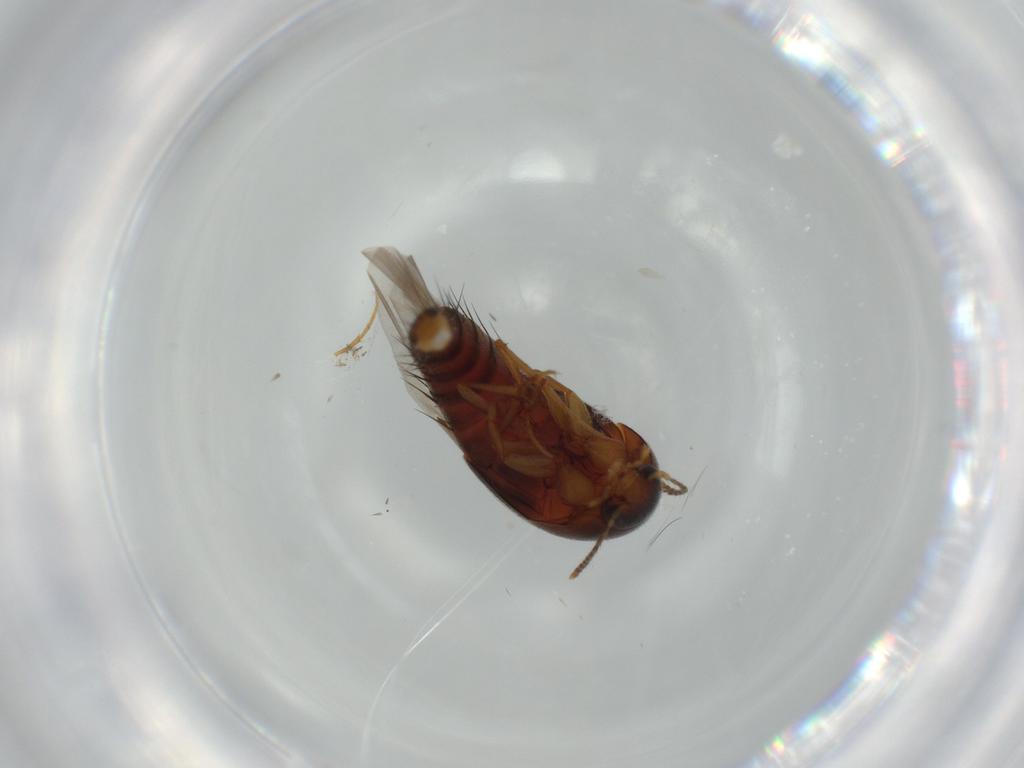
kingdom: Animalia
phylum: Arthropoda
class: Insecta
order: Coleoptera
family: Staphylinidae
